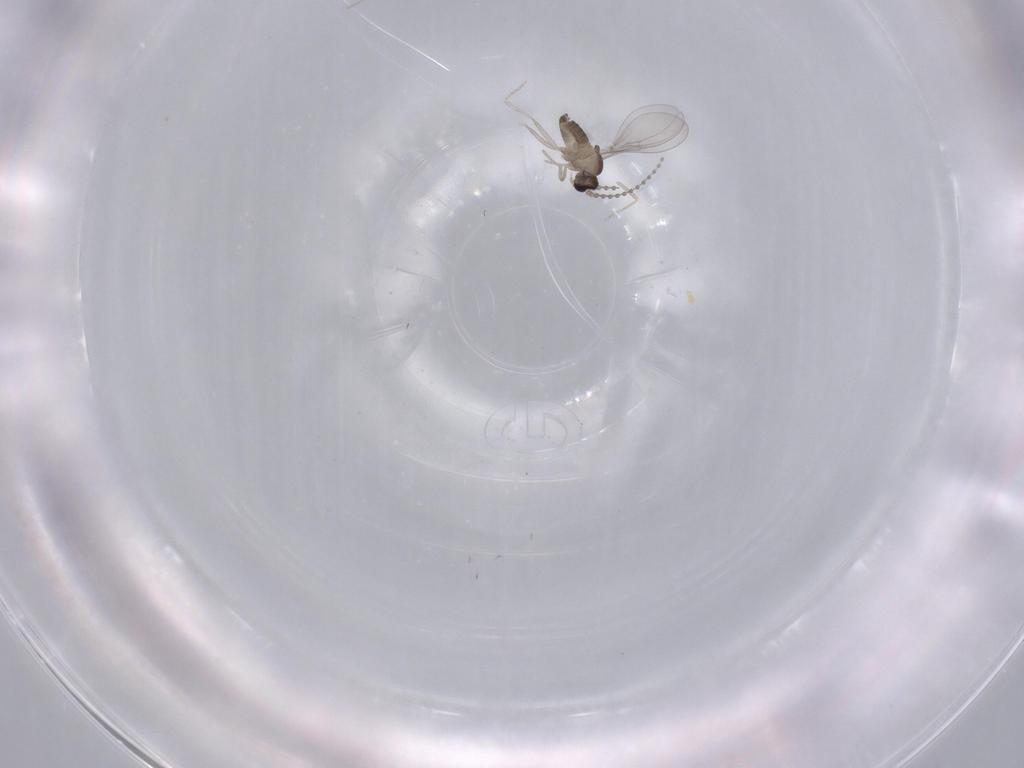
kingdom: Animalia
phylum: Arthropoda
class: Insecta
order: Diptera
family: Cecidomyiidae
